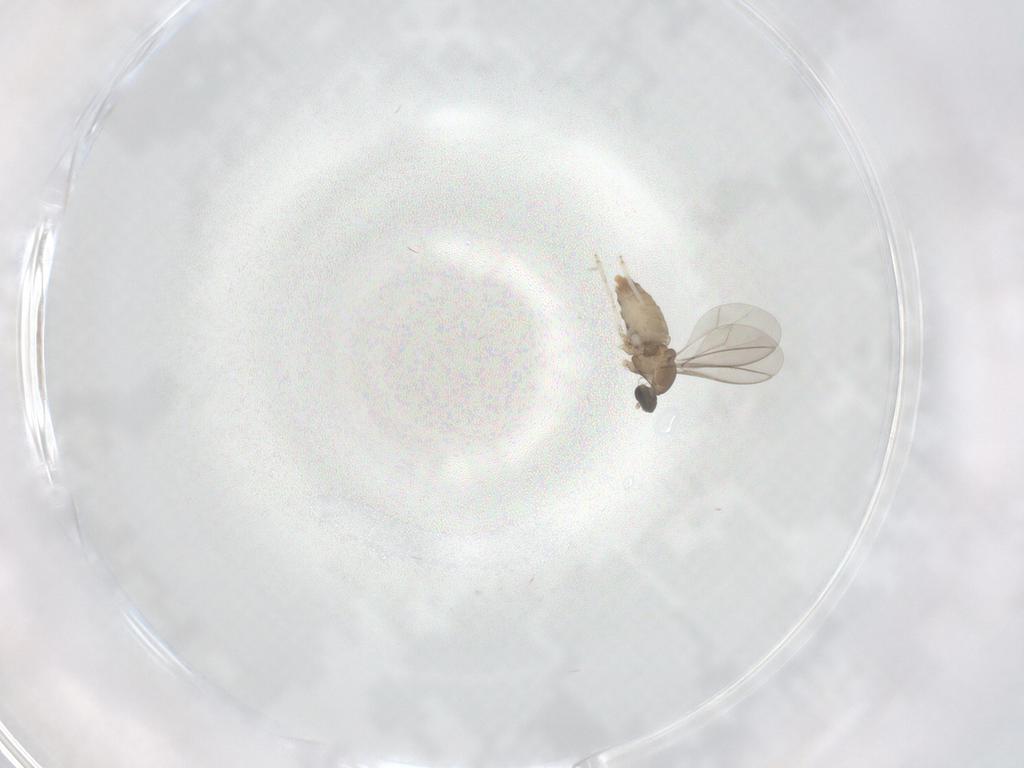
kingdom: Animalia
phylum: Arthropoda
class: Insecta
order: Diptera
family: Cecidomyiidae
